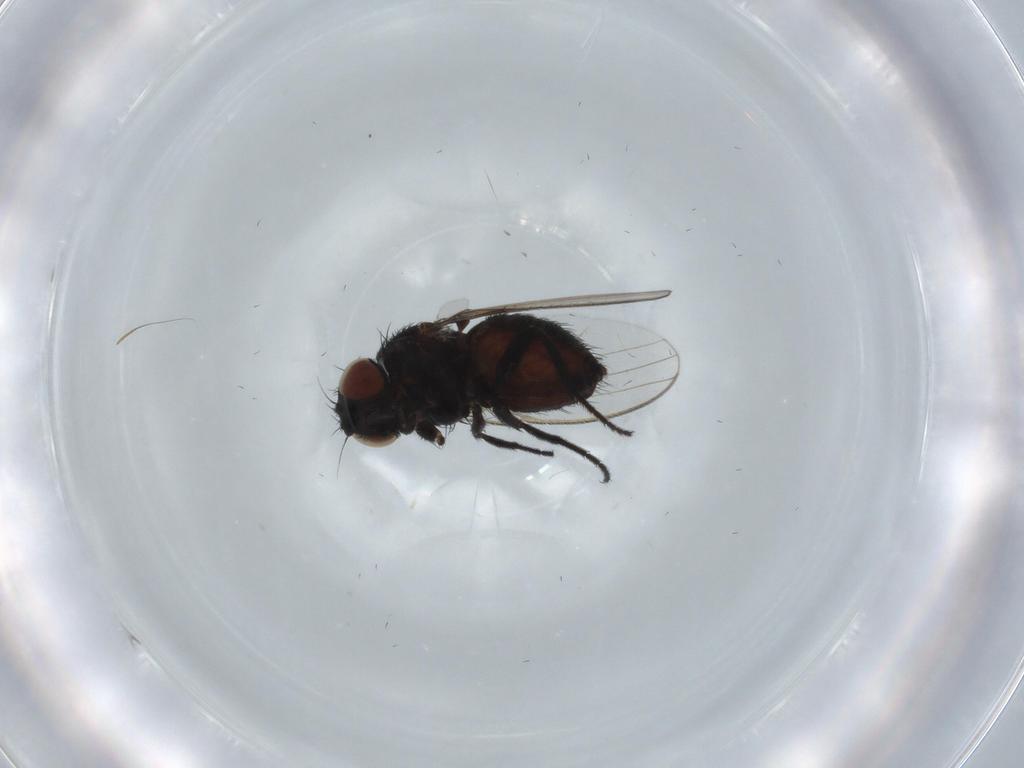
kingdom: Animalia
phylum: Arthropoda
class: Insecta
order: Diptera
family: Milichiidae
